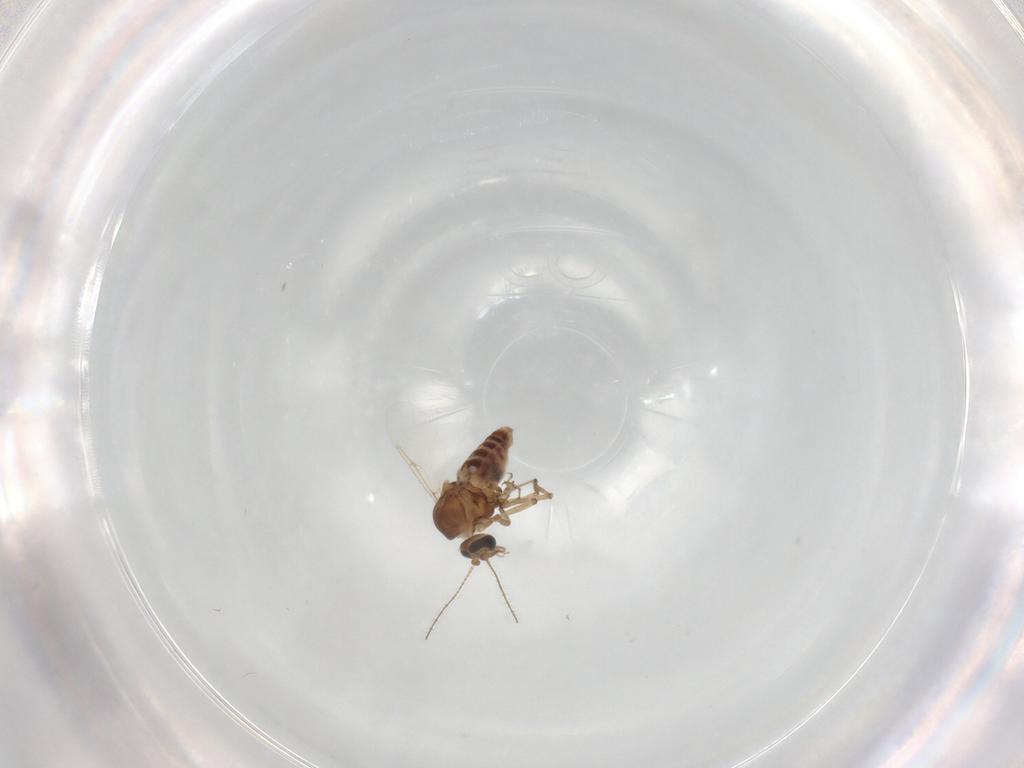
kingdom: Animalia
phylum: Arthropoda
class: Insecta
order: Diptera
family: Ceratopogonidae
